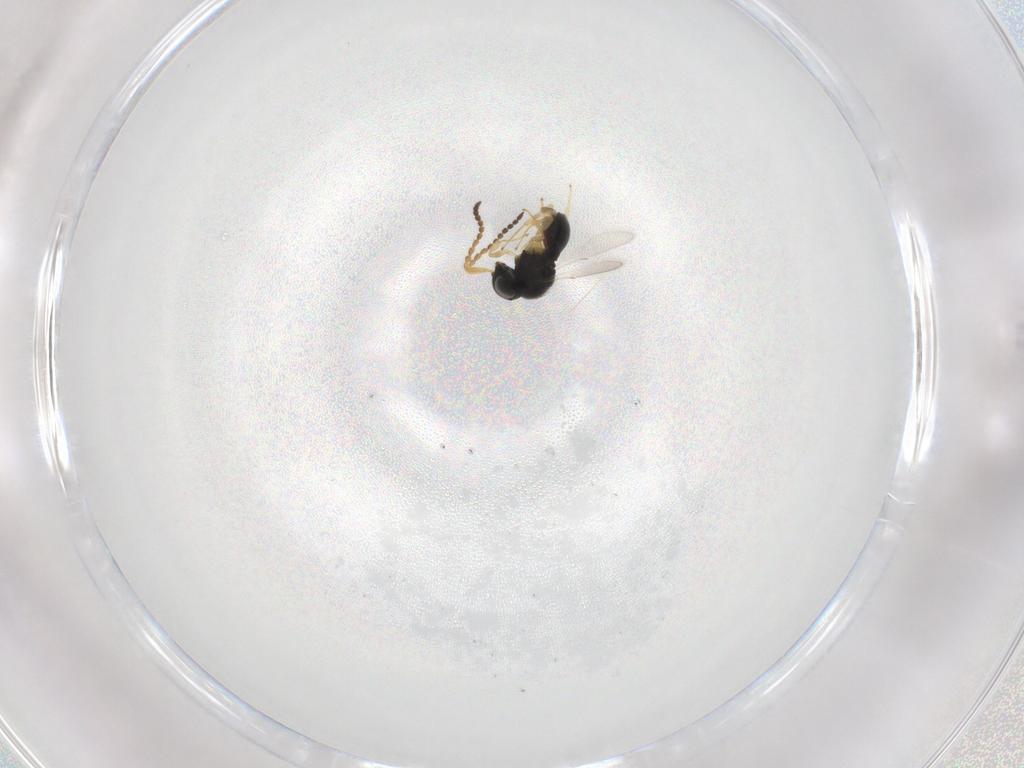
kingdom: Animalia
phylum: Arthropoda
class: Insecta
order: Hymenoptera
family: Scelionidae
